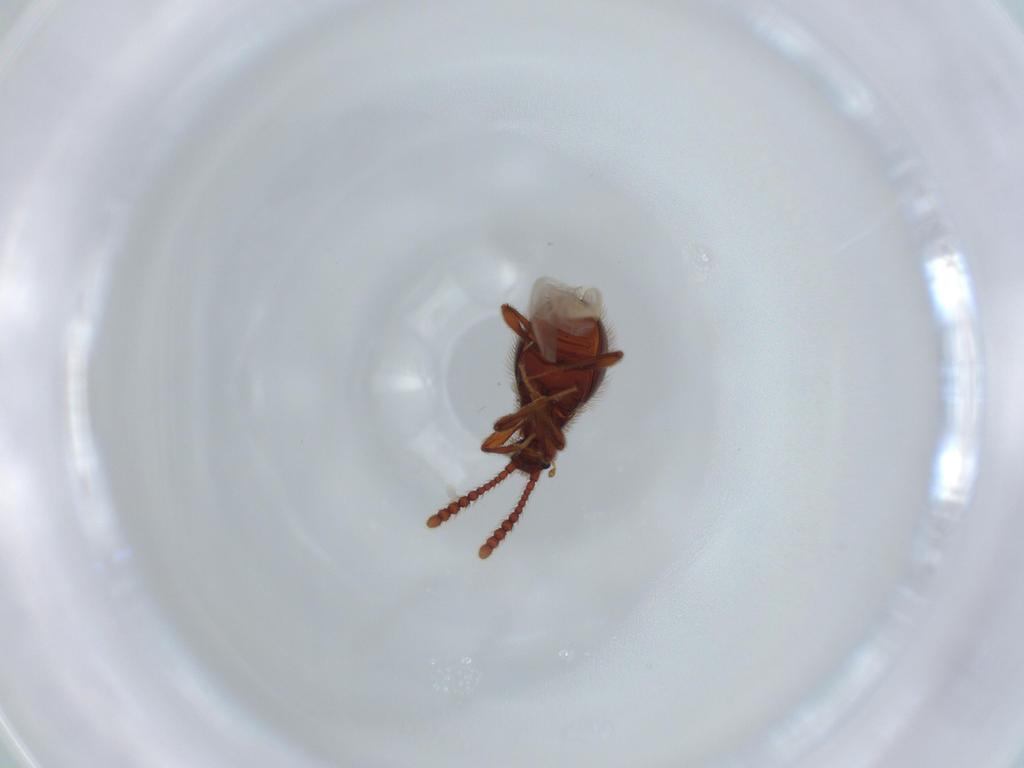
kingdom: Animalia
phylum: Arthropoda
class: Insecta
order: Coleoptera
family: Staphylinidae
